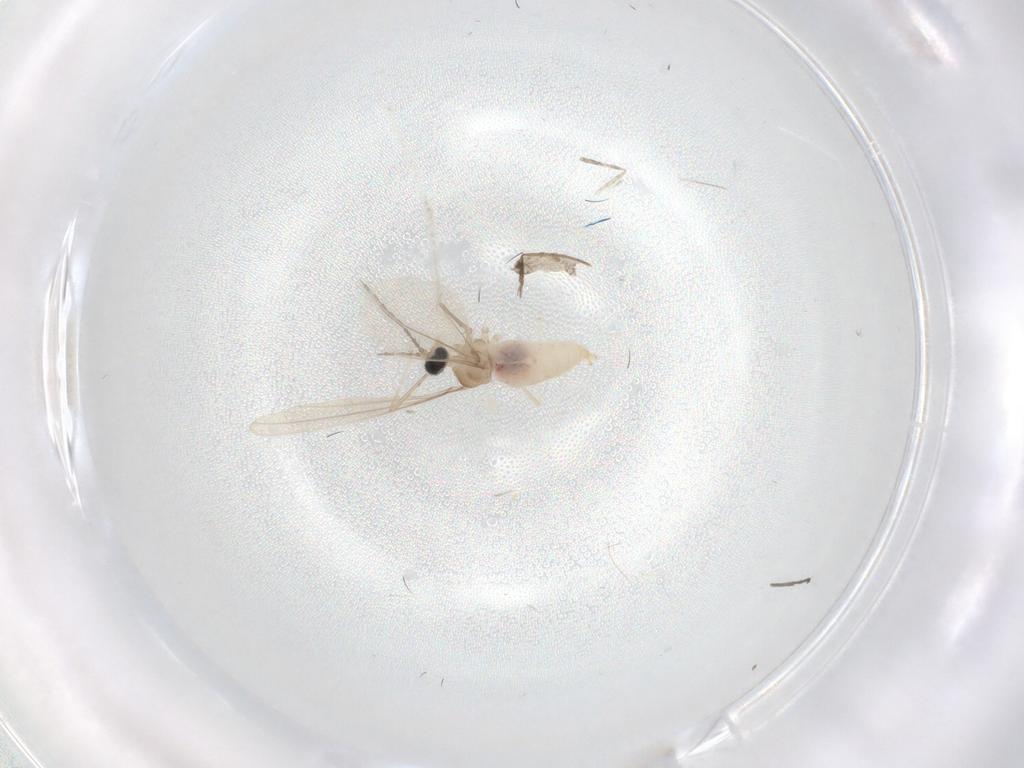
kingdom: Animalia
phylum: Arthropoda
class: Insecta
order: Diptera
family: Sciaridae
